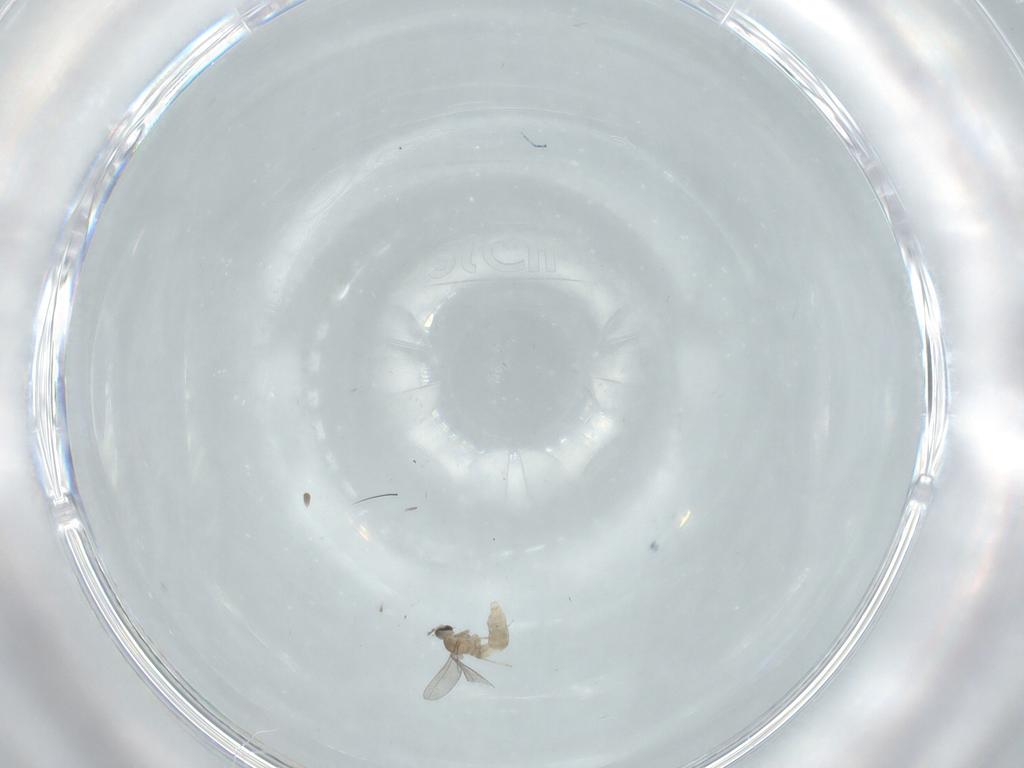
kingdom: Animalia
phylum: Arthropoda
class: Insecta
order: Diptera
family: Cecidomyiidae
